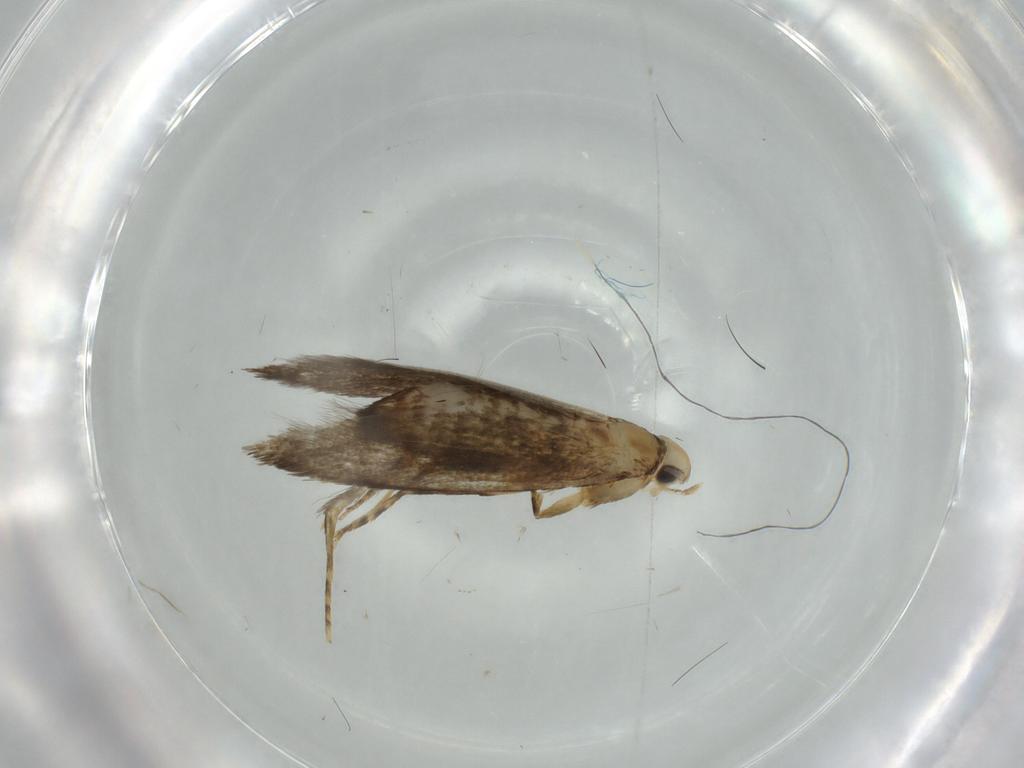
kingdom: Animalia
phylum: Arthropoda
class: Insecta
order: Lepidoptera
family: Tineidae
